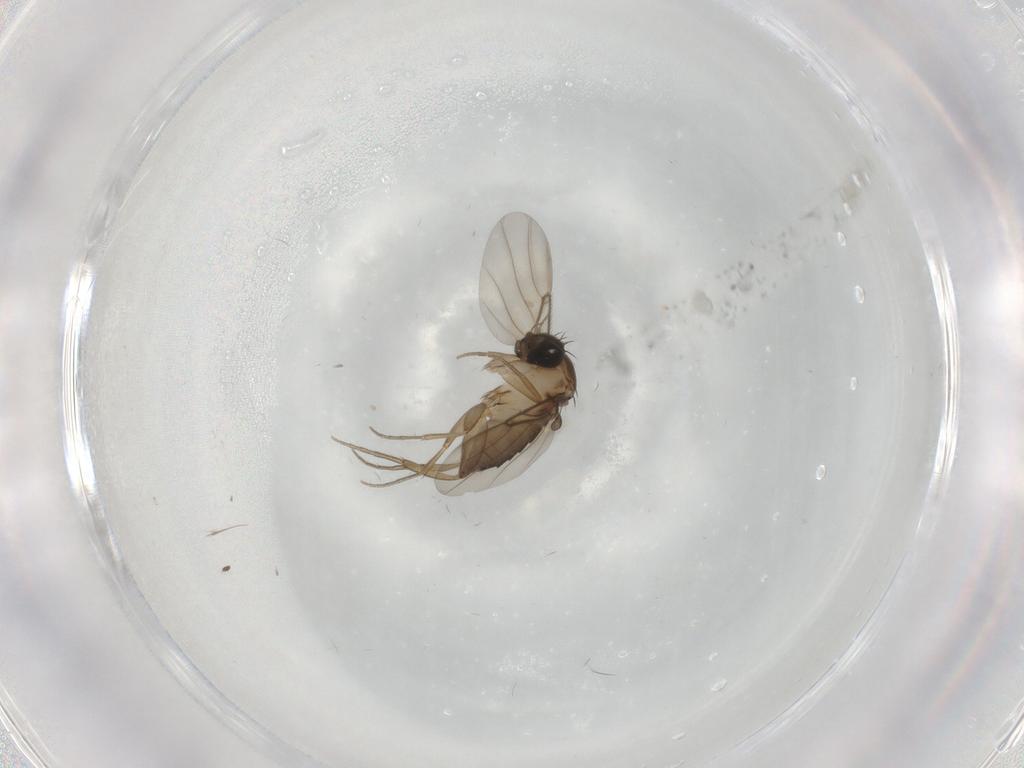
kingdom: Animalia
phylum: Arthropoda
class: Insecta
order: Diptera
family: Phoridae
